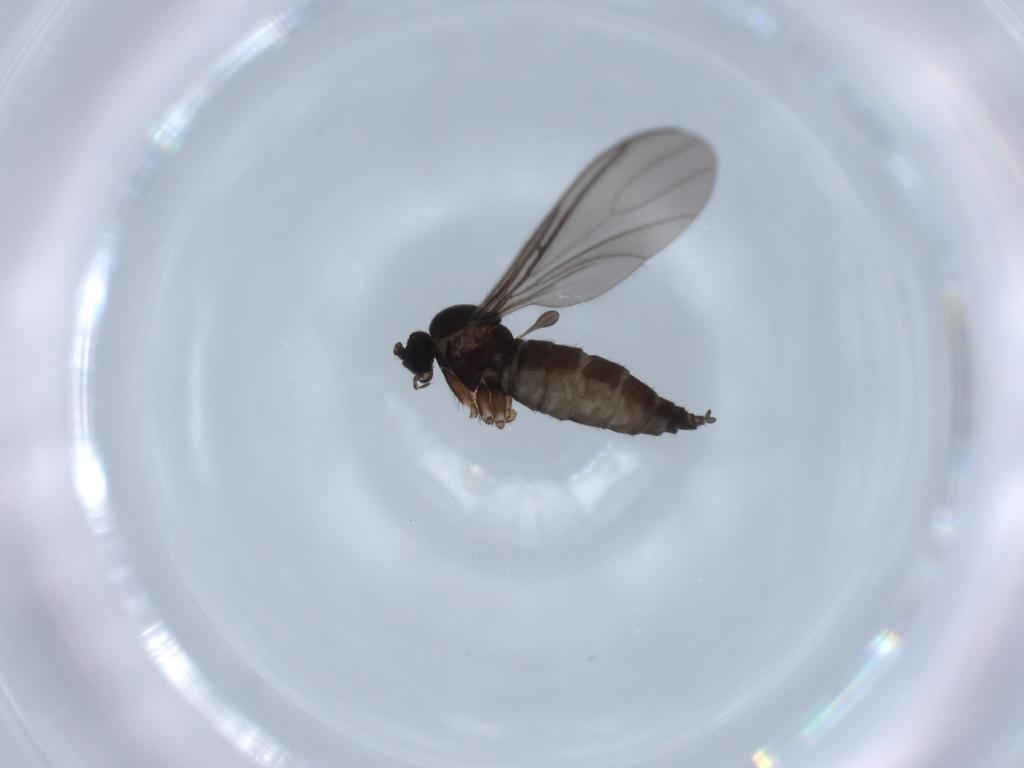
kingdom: Animalia
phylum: Arthropoda
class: Insecta
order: Diptera
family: Sciaridae
